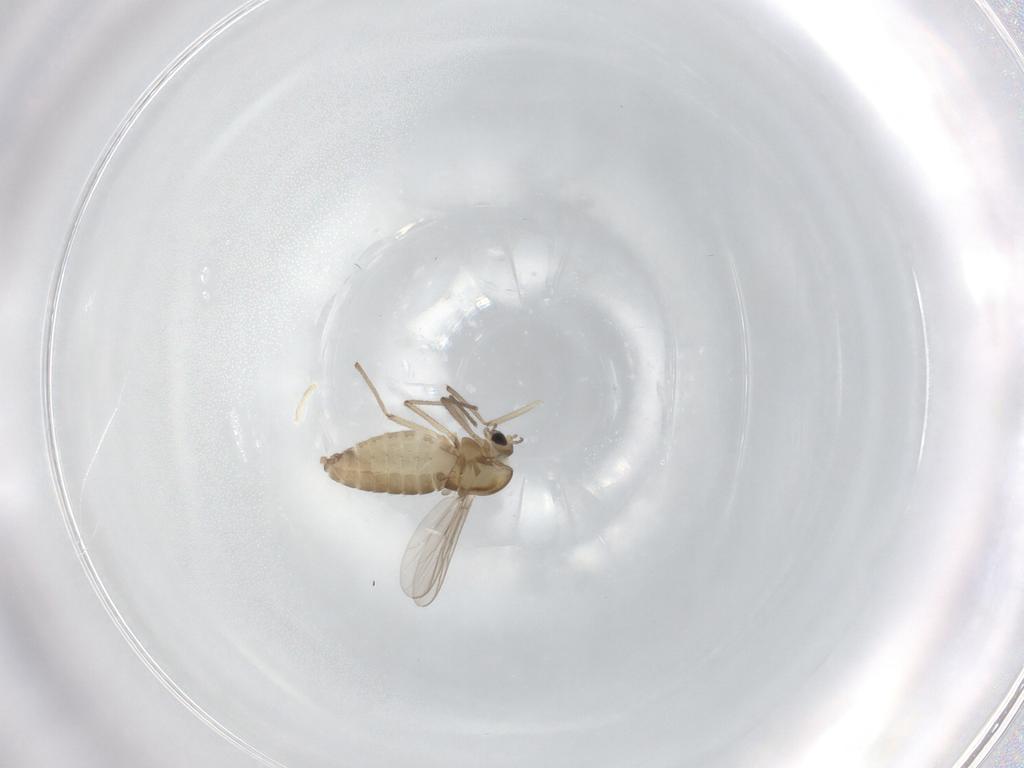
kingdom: Animalia
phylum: Arthropoda
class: Insecta
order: Diptera
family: Chironomidae
